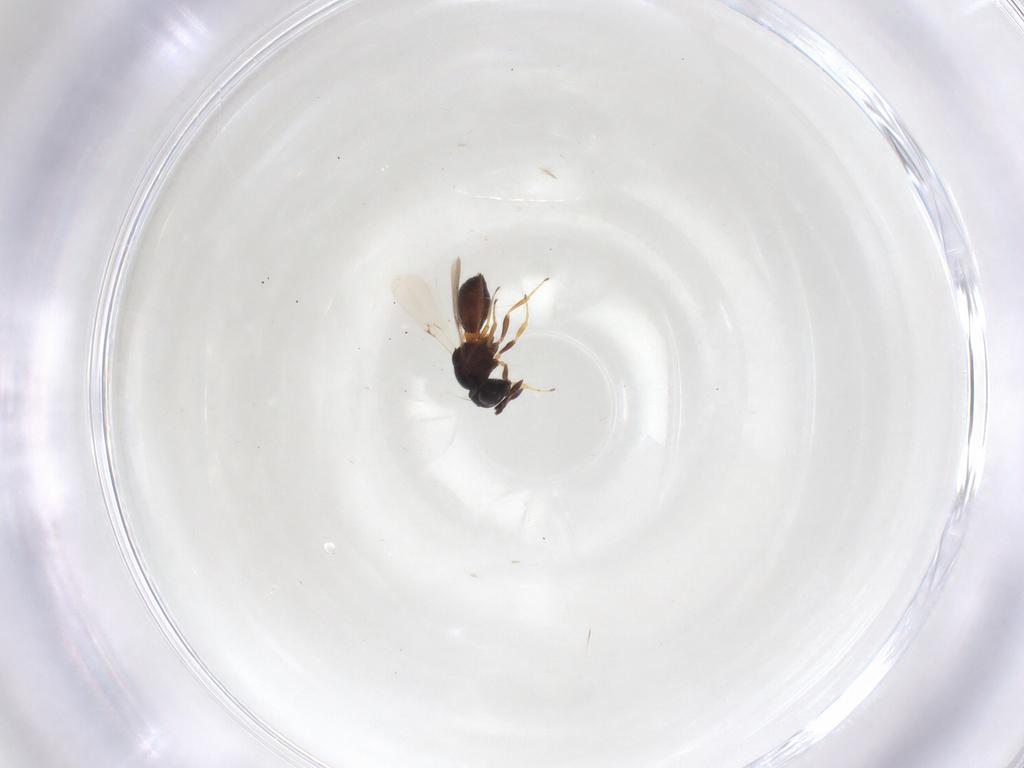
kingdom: Animalia
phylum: Arthropoda
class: Insecta
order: Hymenoptera
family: Scelionidae
